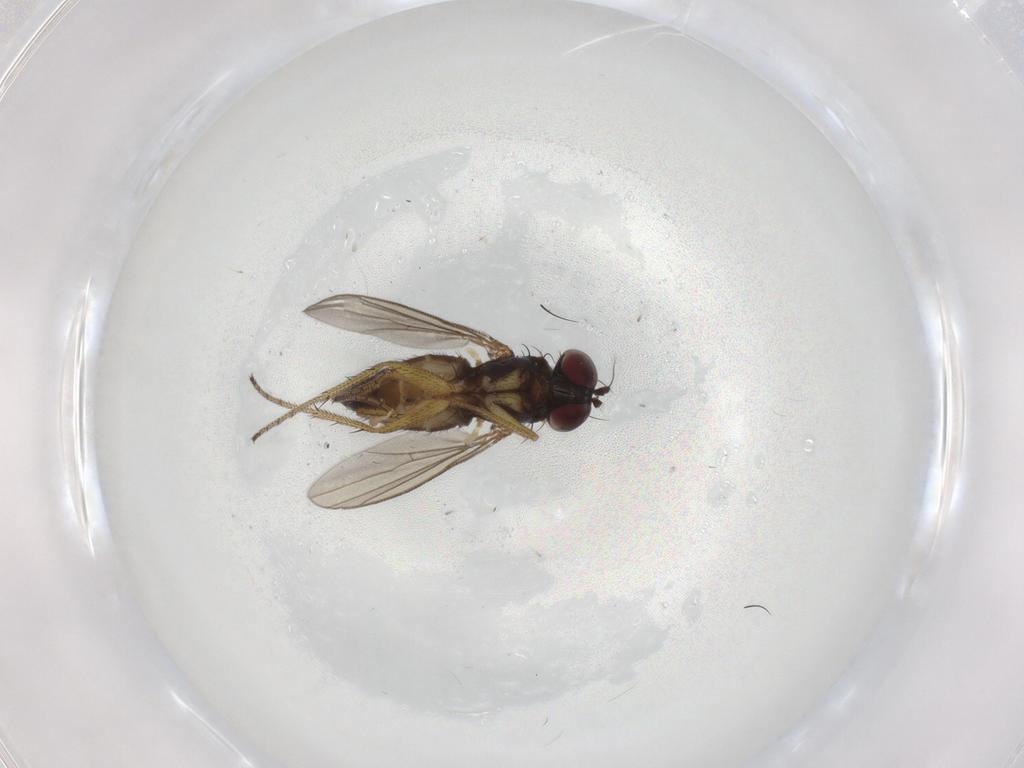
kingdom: Animalia
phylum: Arthropoda
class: Insecta
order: Diptera
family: Chironomidae
